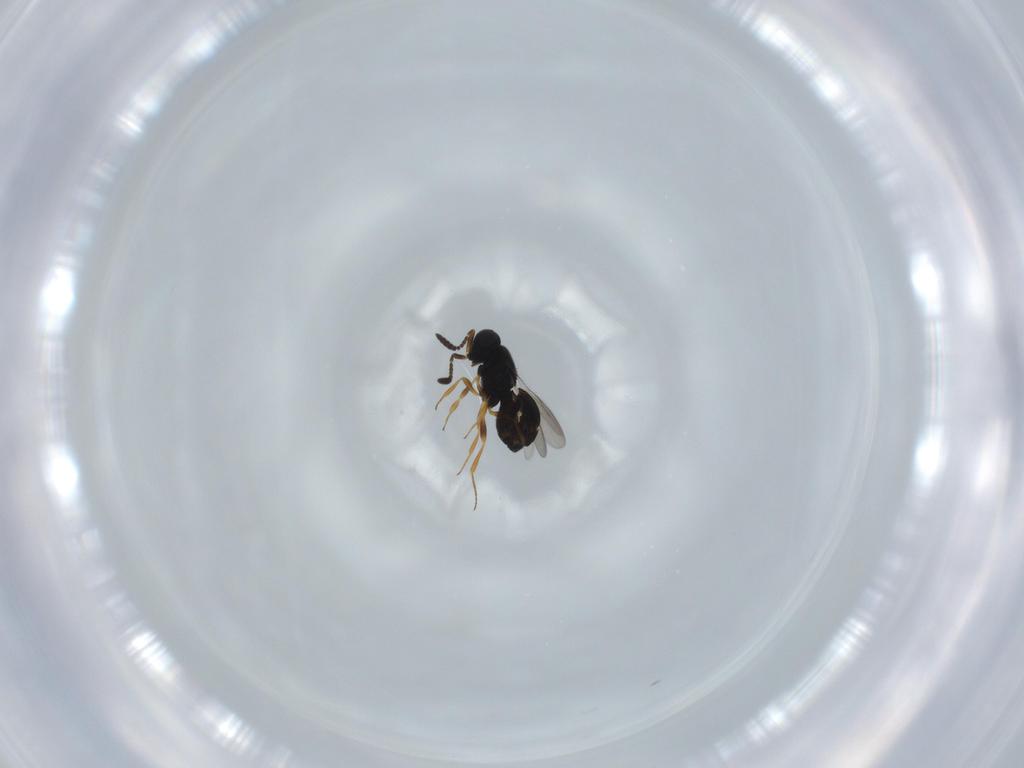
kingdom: Animalia
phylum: Arthropoda
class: Insecta
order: Hymenoptera
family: Scelionidae
